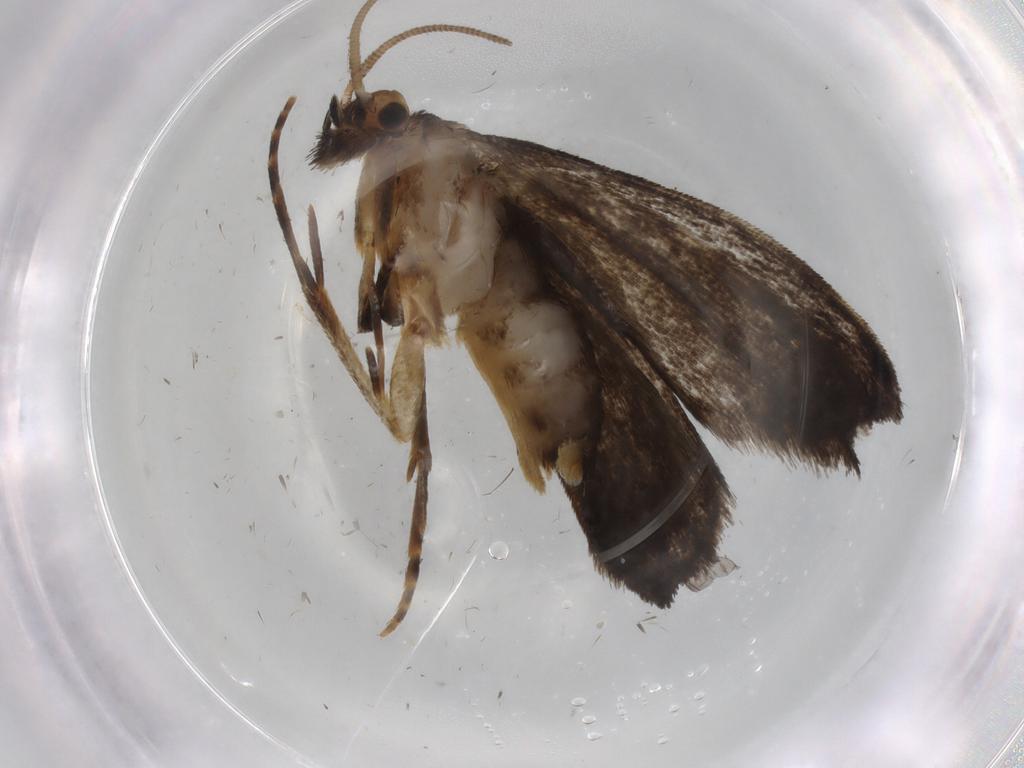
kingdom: Animalia
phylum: Arthropoda
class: Insecta
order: Lepidoptera
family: Dryadaulidae
